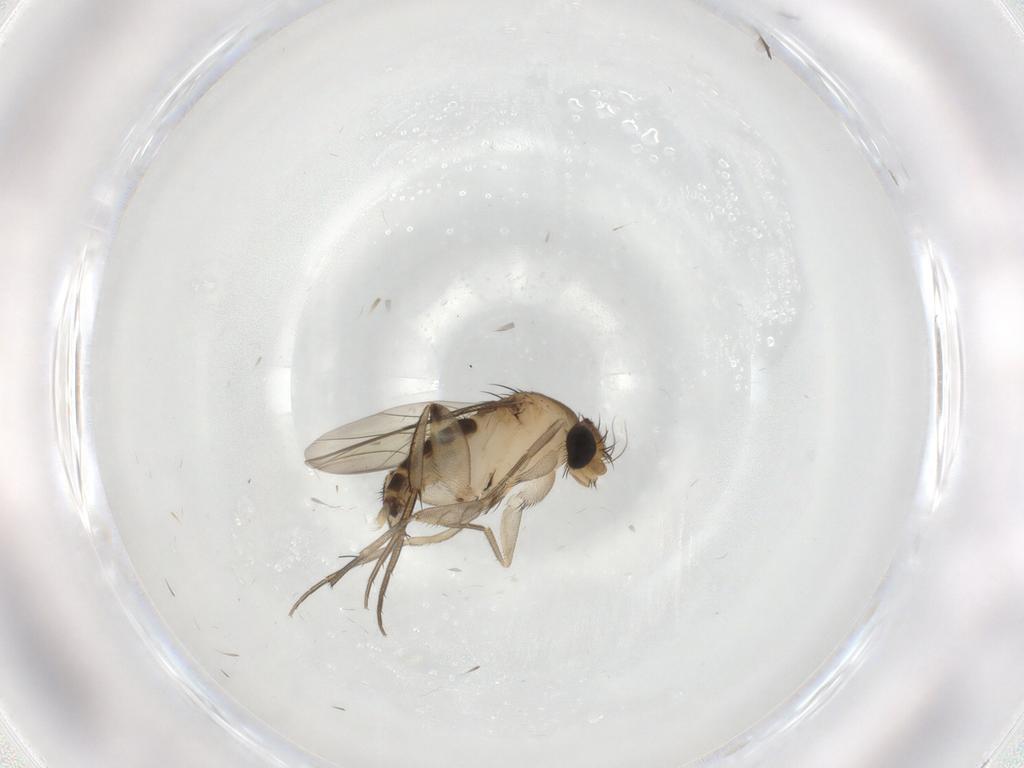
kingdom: Animalia
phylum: Arthropoda
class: Insecta
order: Diptera
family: Phoridae
